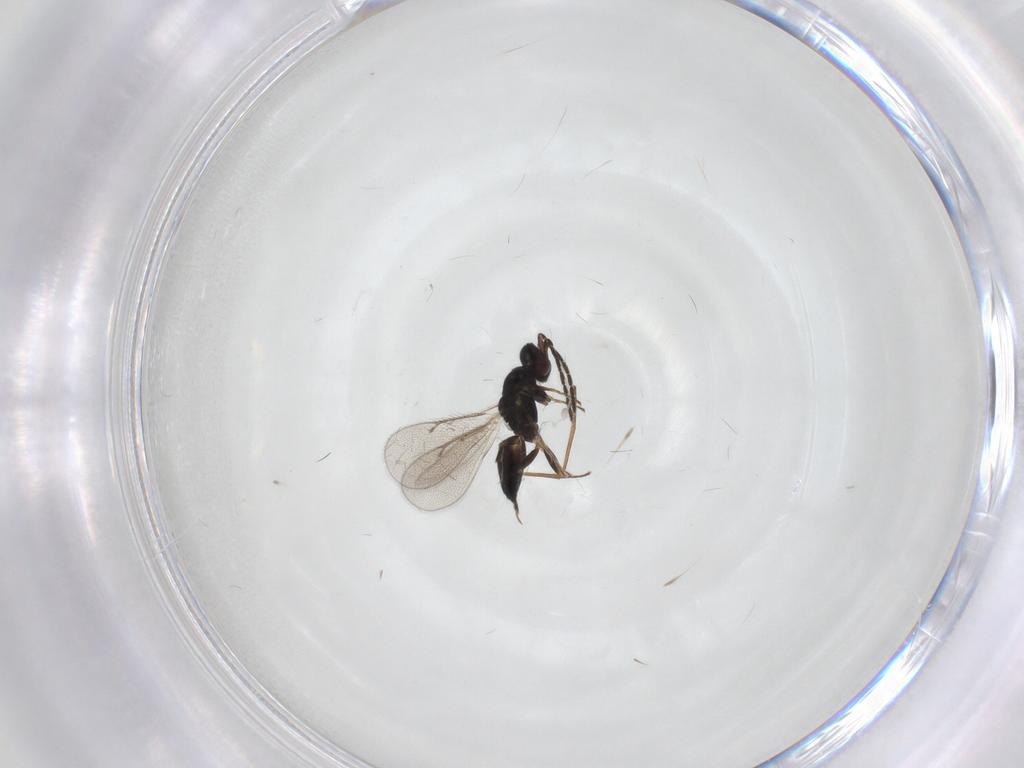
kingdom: Animalia
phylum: Arthropoda
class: Insecta
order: Hymenoptera
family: Eulophidae
